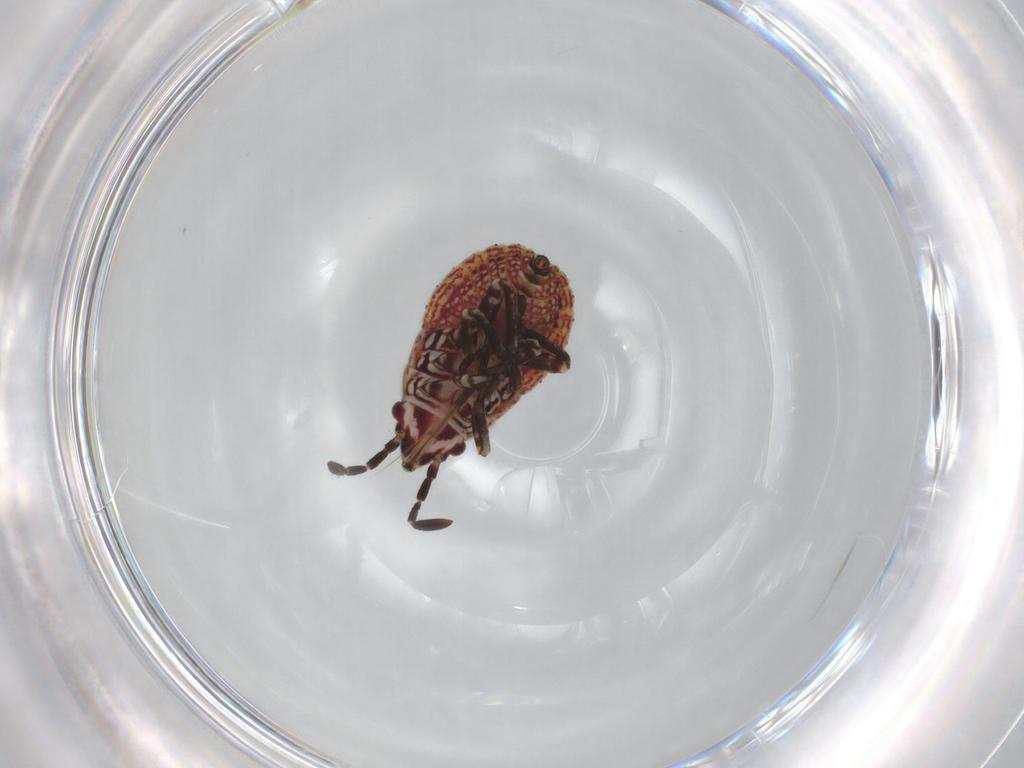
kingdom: Animalia
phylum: Arthropoda
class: Insecta
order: Hemiptera
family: Lygaeidae
